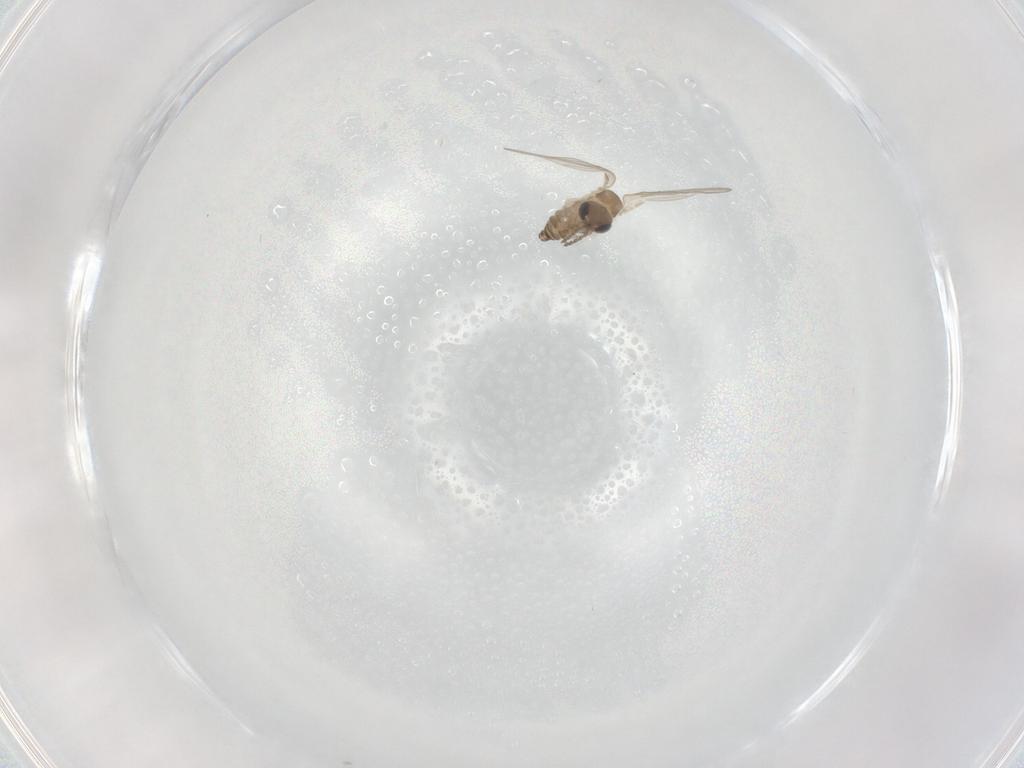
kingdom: Animalia
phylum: Arthropoda
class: Insecta
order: Diptera
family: Cecidomyiidae
